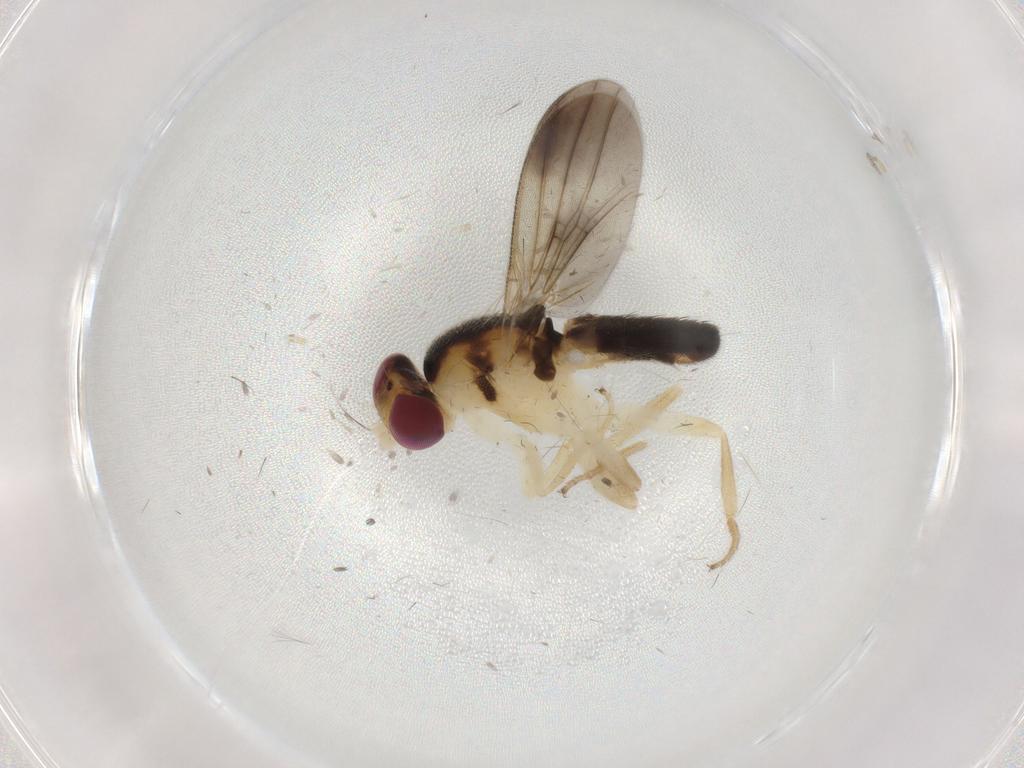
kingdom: Animalia
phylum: Arthropoda
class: Insecta
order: Diptera
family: Clusiidae
